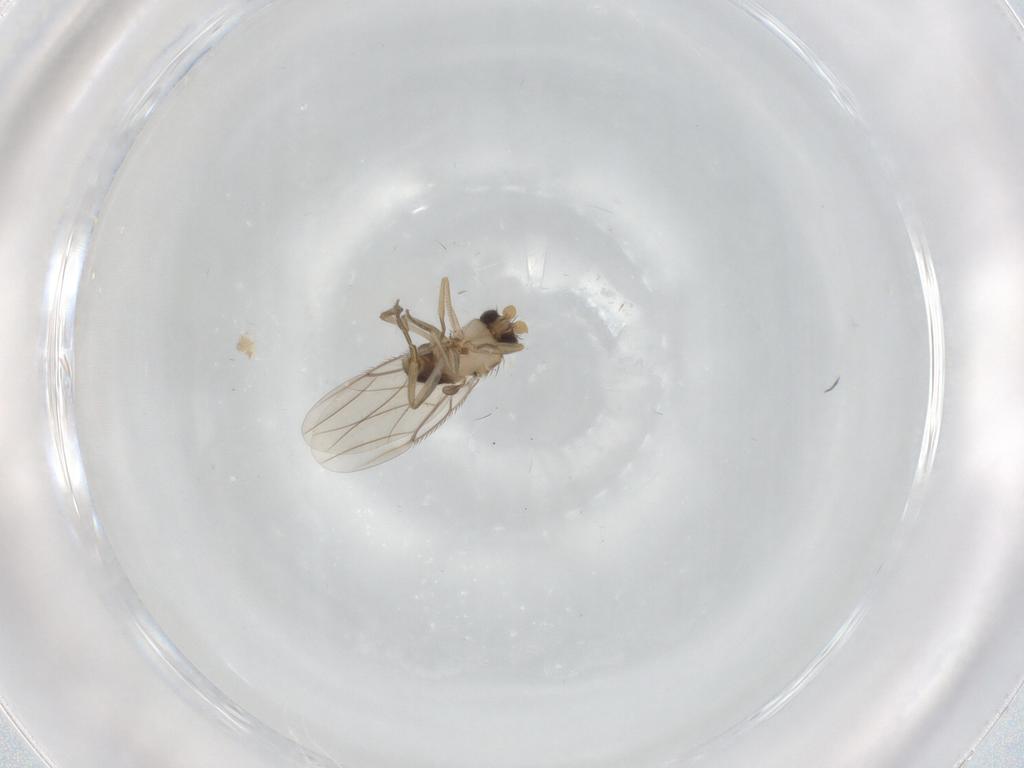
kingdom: Animalia
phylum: Arthropoda
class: Insecta
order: Diptera
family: Phoridae
